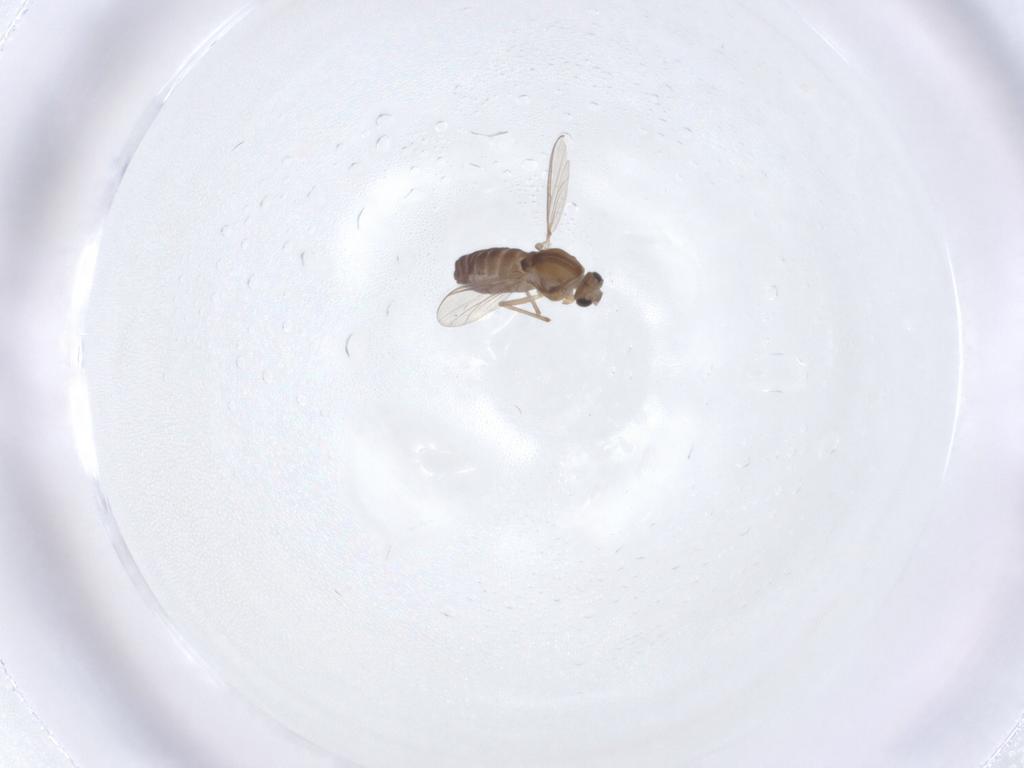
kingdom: Animalia
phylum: Arthropoda
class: Insecta
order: Diptera
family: Chironomidae
